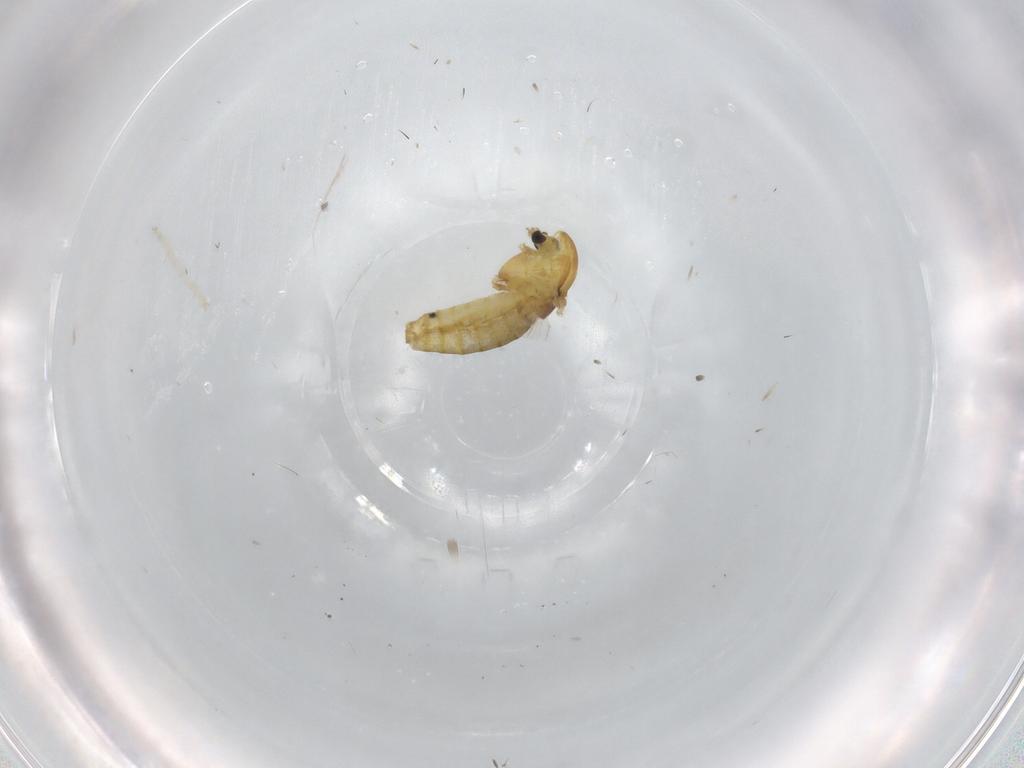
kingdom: Animalia
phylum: Arthropoda
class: Insecta
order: Diptera
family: Chironomidae
